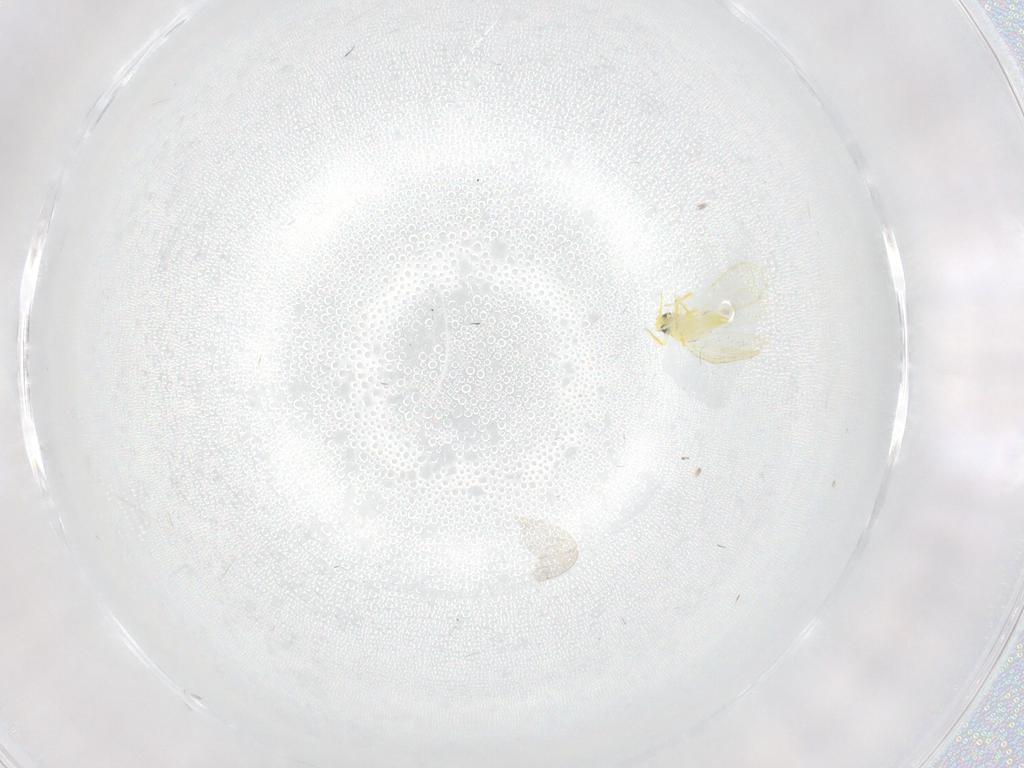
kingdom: Animalia
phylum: Arthropoda
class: Insecta
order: Hemiptera
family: Aleyrodidae
